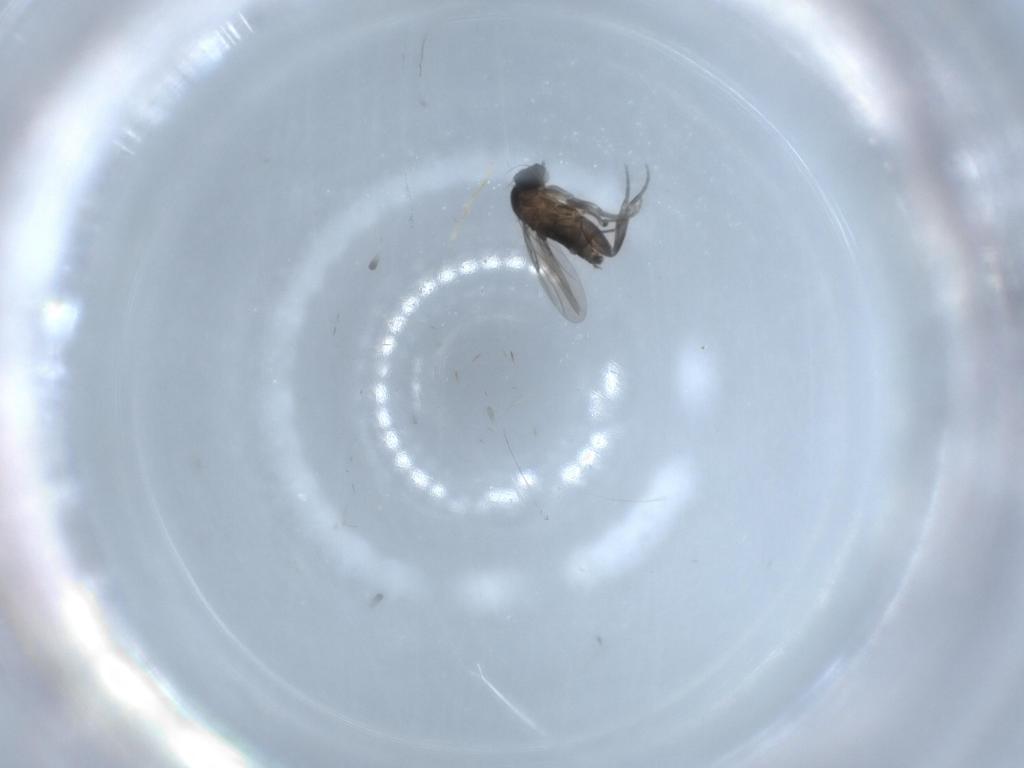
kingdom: Animalia
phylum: Arthropoda
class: Insecta
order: Diptera
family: Phoridae
